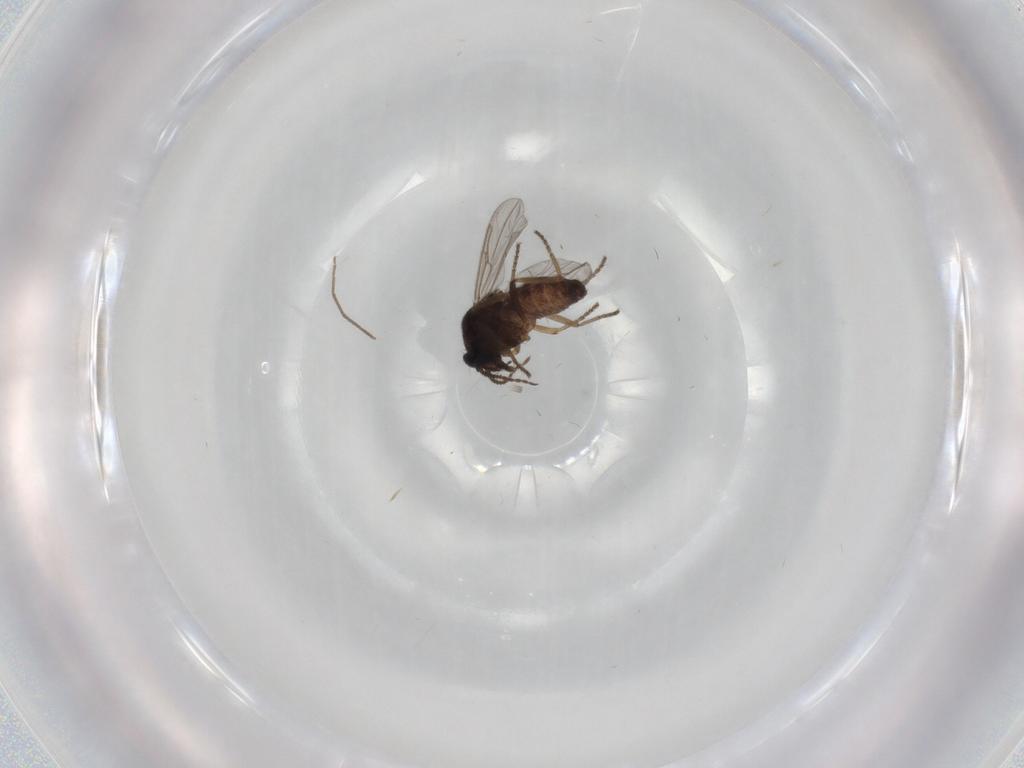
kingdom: Animalia
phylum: Arthropoda
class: Insecta
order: Diptera
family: Ceratopogonidae
